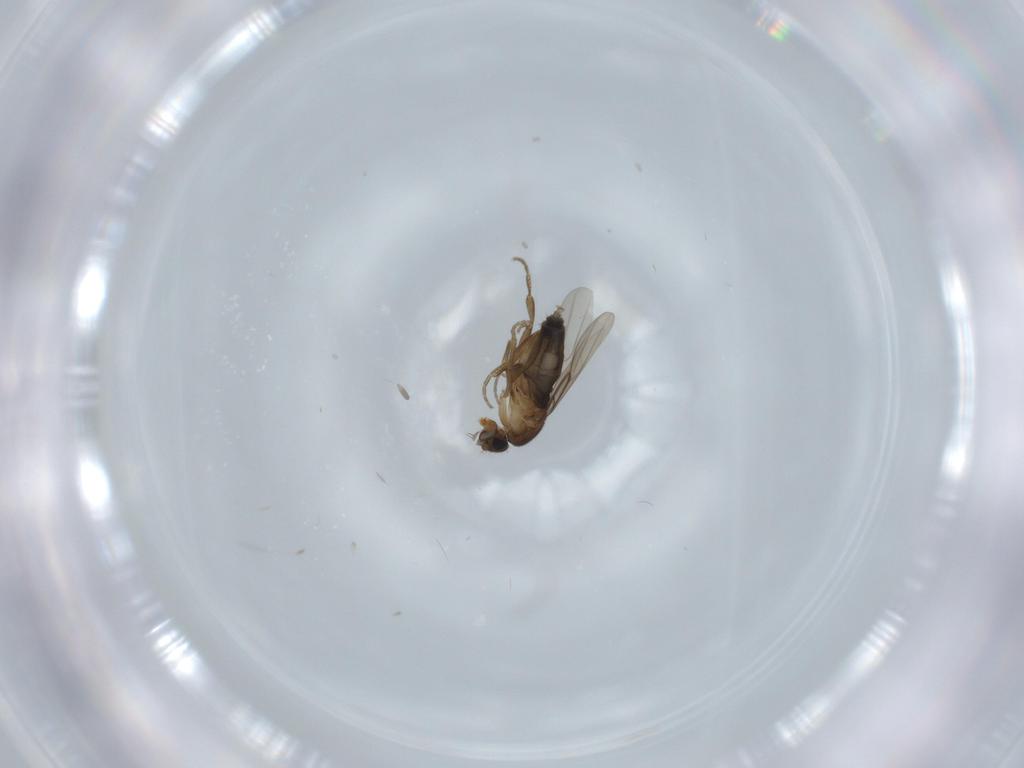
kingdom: Animalia
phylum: Arthropoda
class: Insecta
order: Diptera
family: Phoridae
